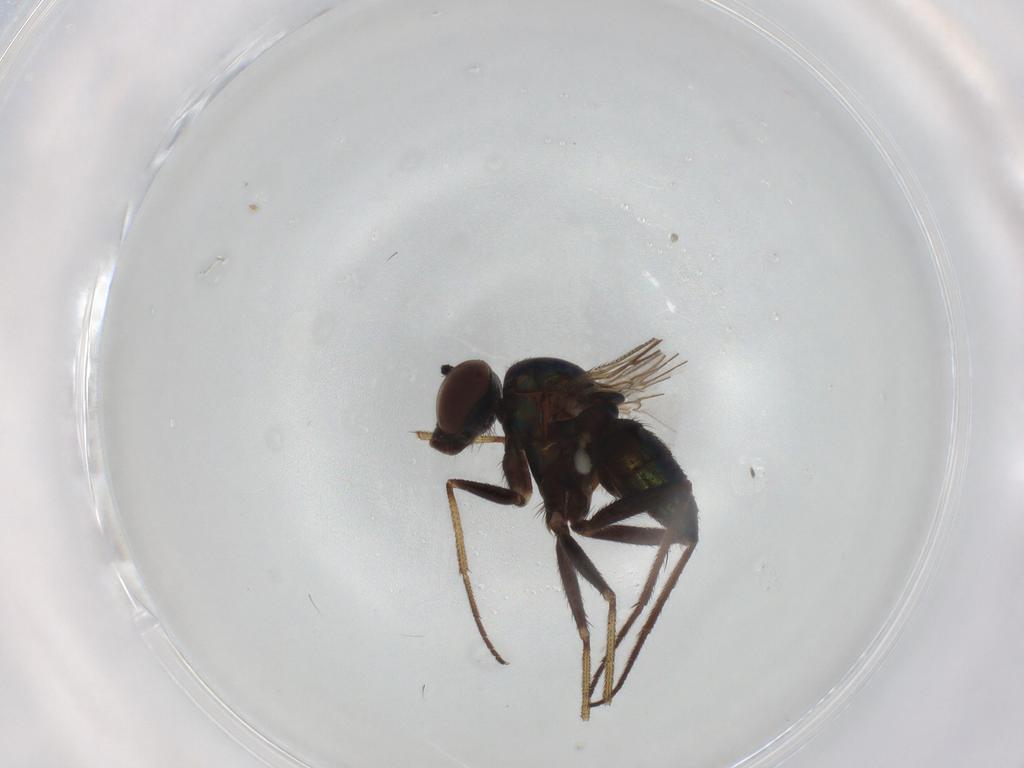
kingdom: Animalia
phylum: Arthropoda
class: Insecta
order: Diptera
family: Dolichopodidae
